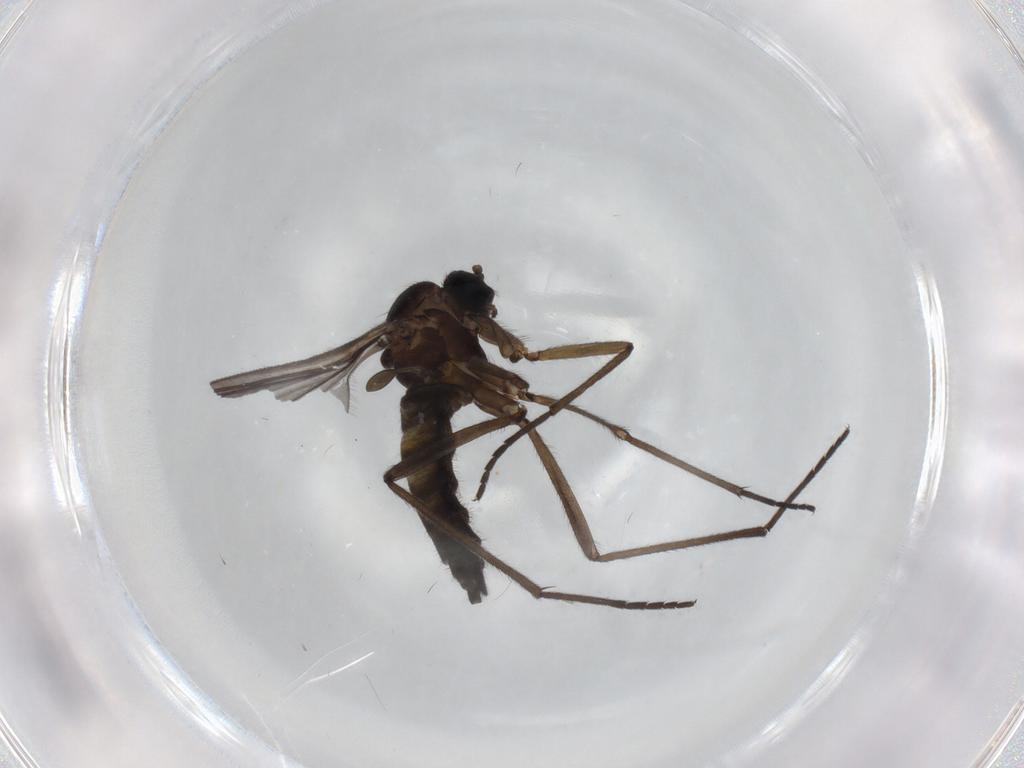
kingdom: Animalia
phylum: Arthropoda
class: Insecta
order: Diptera
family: Sciaridae
